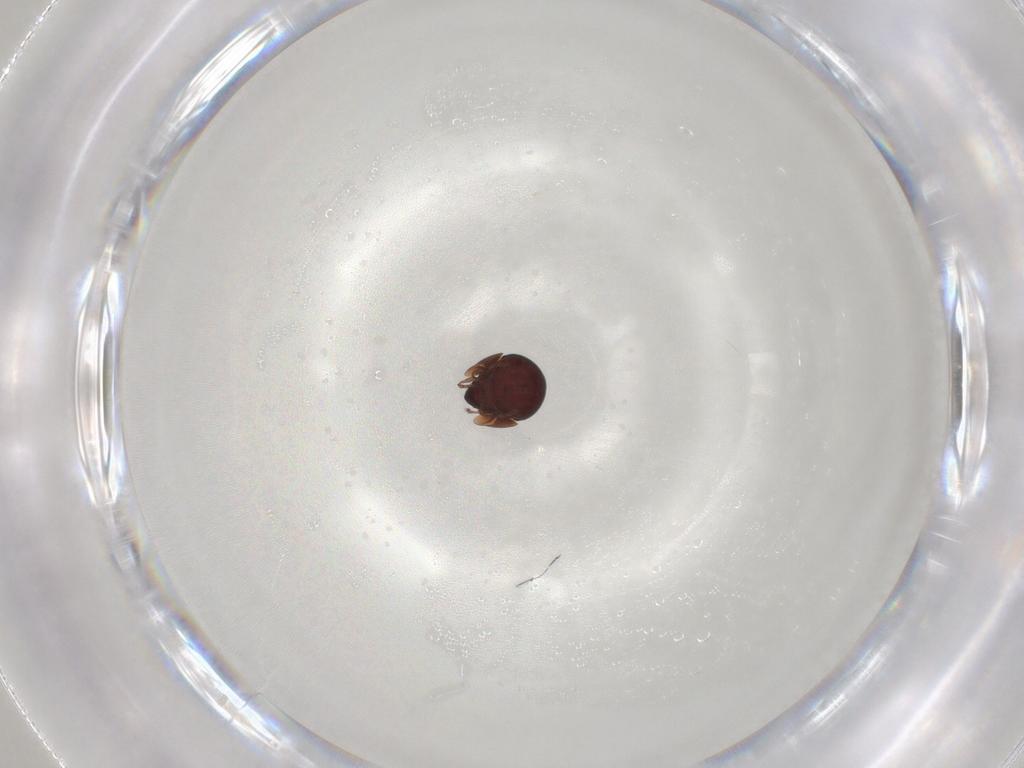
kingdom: Animalia
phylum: Arthropoda
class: Arachnida
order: Sarcoptiformes
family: Galumnidae
